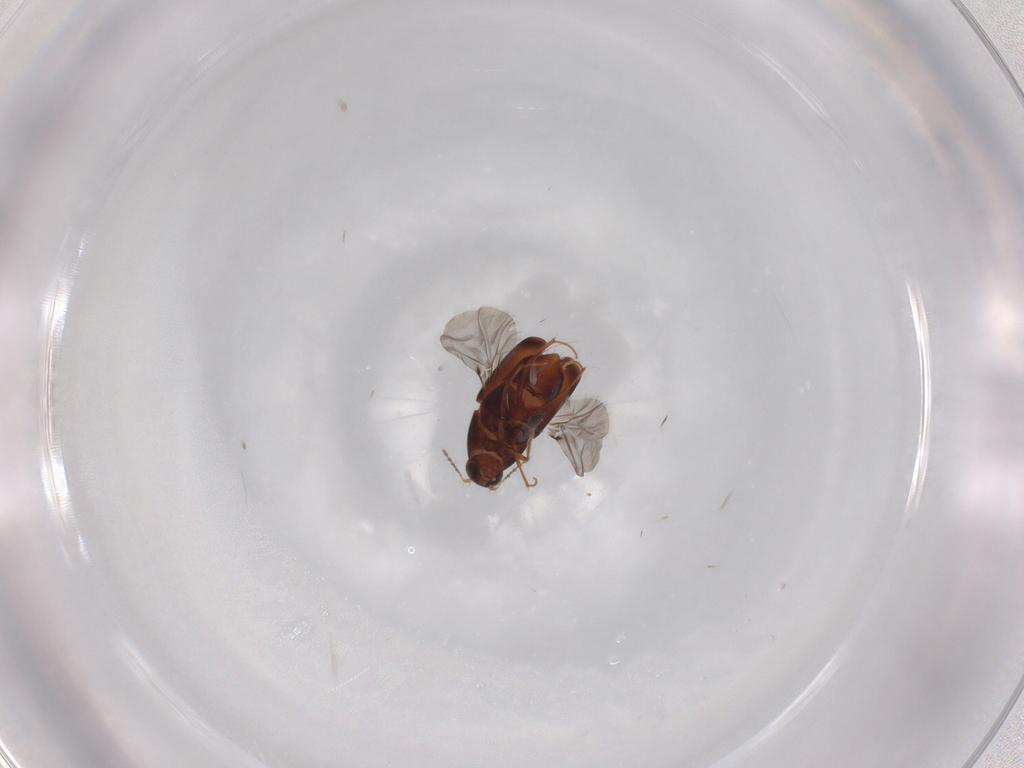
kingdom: Animalia
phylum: Arthropoda
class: Insecta
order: Coleoptera
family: Staphylinidae
